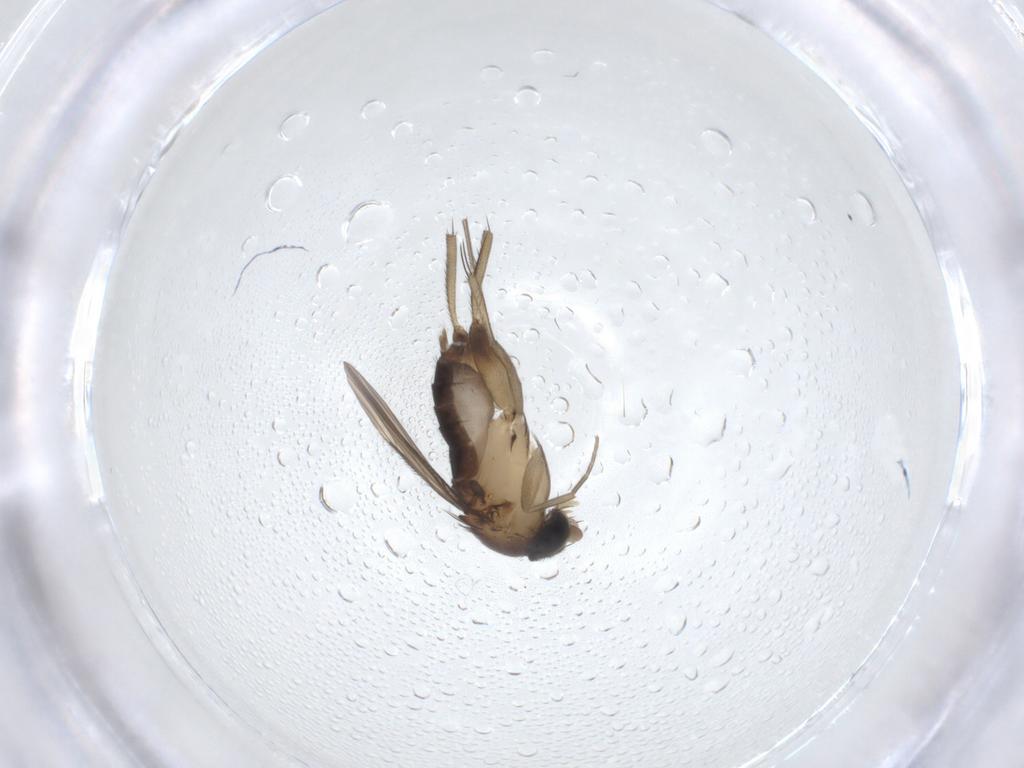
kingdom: Animalia
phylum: Arthropoda
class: Insecta
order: Diptera
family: Phoridae
